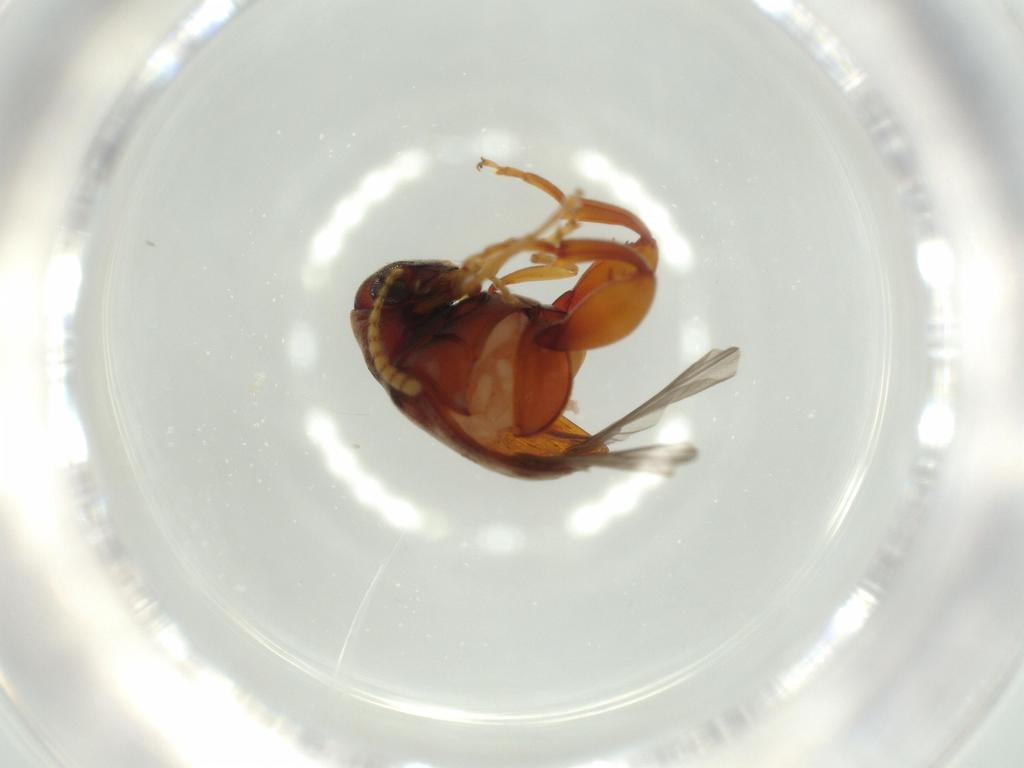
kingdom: Animalia
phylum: Arthropoda
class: Insecta
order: Coleoptera
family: Chrysomelidae
